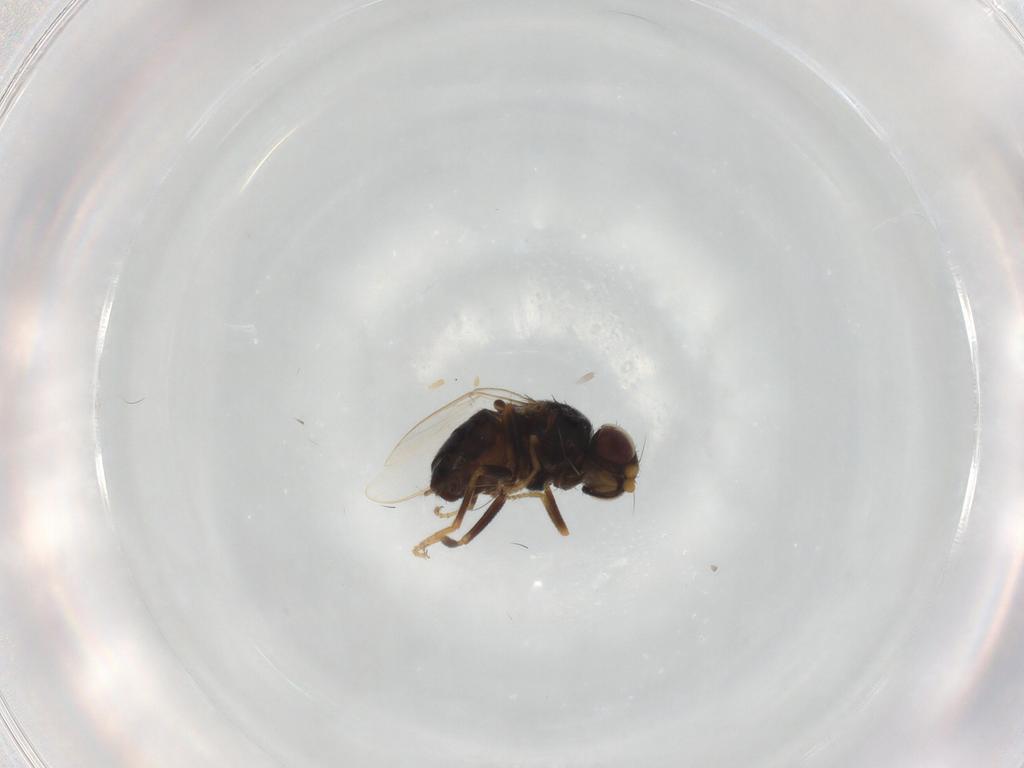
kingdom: Animalia
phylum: Arthropoda
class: Insecta
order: Diptera
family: Chloropidae
